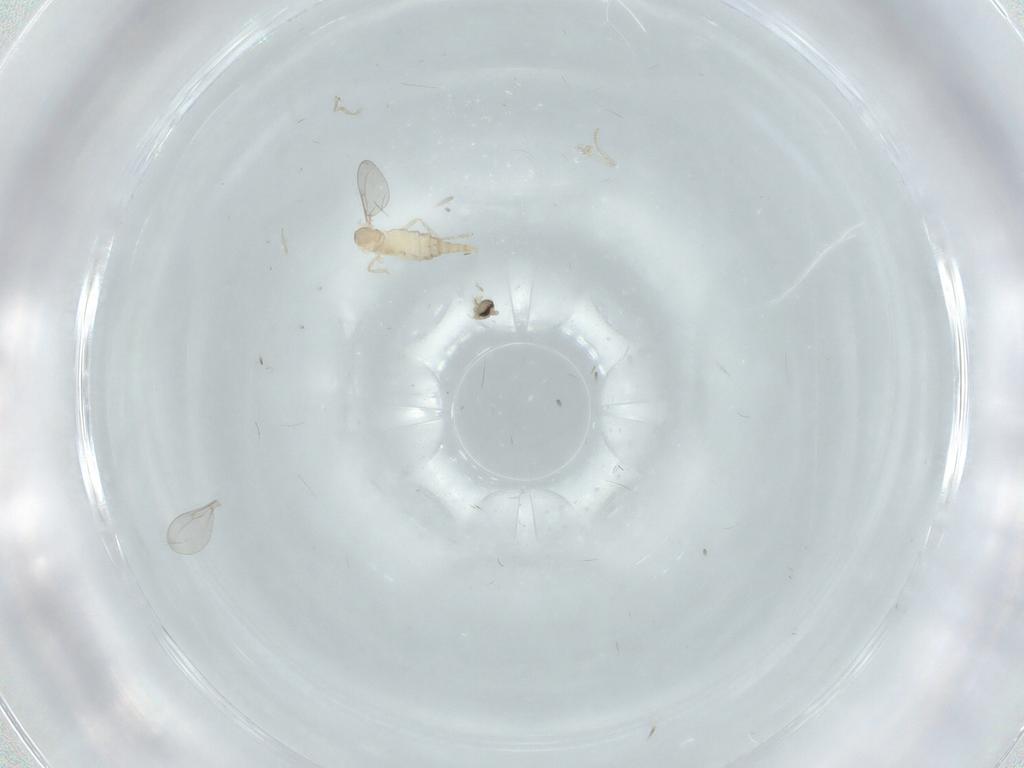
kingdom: Animalia
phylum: Arthropoda
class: Insecta
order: Diptera
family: Cecidomyiidae
